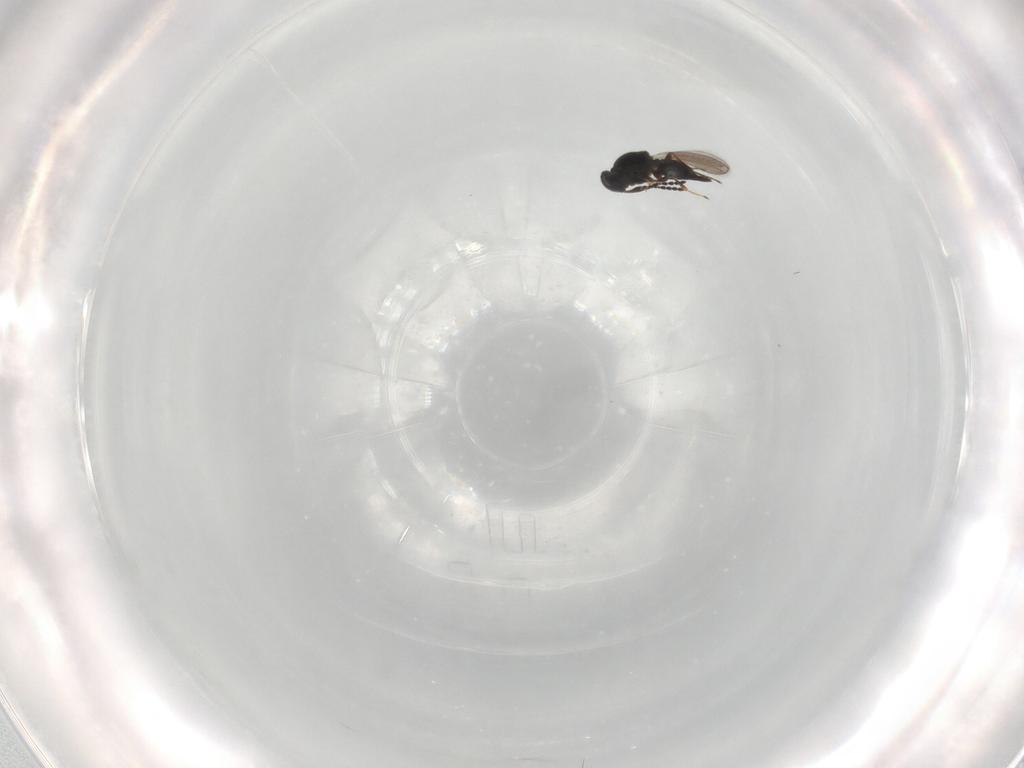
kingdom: Animalia
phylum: Arthropoda
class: Insecta
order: Hymenoptera
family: Platygastridae
